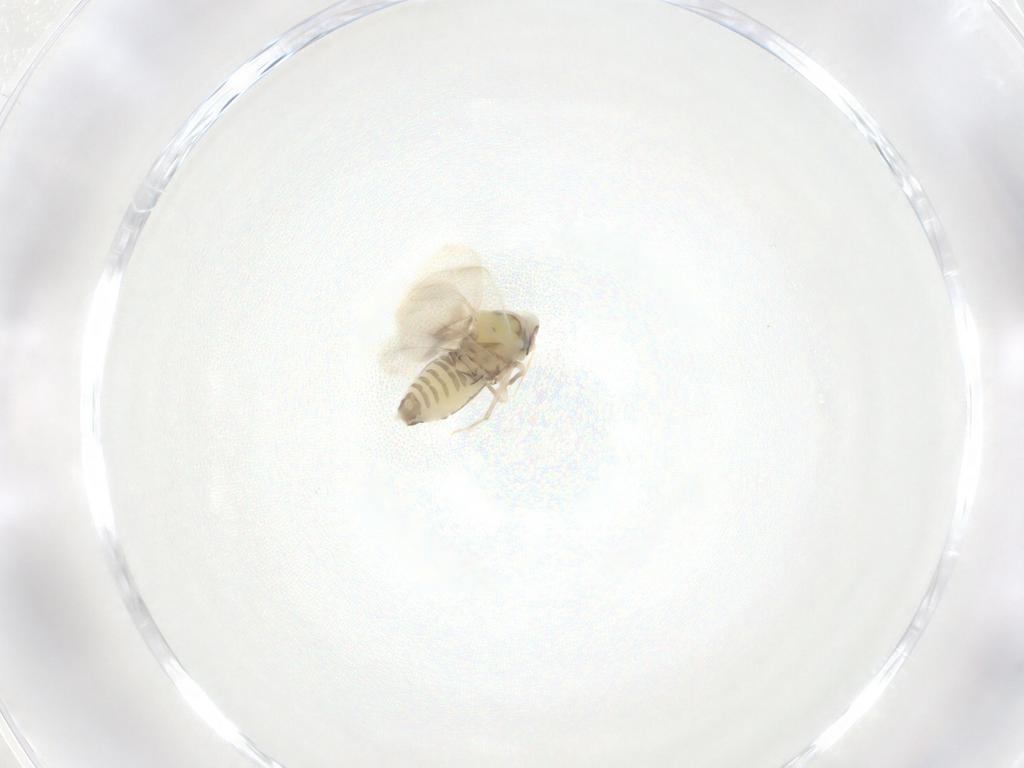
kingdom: Animalia
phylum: Arthropoda
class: Insecta
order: Hemiptera
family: Aleyrodidae
